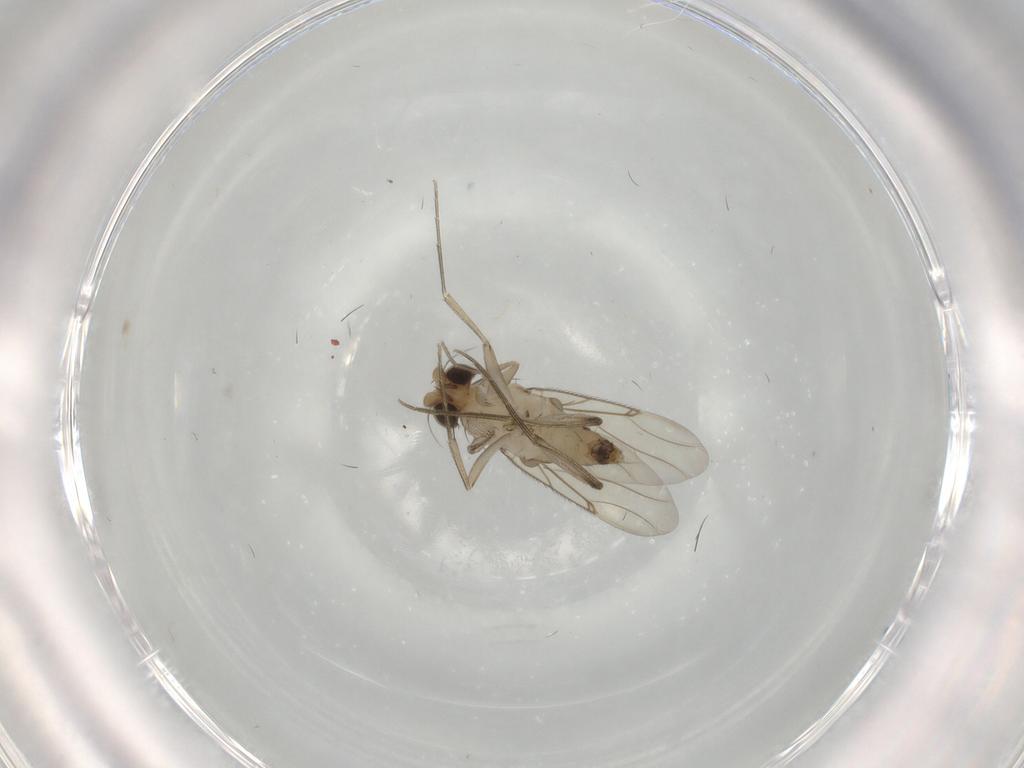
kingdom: Animalia
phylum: Arthropoda
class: Insecta
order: Diptera
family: Phoridae
